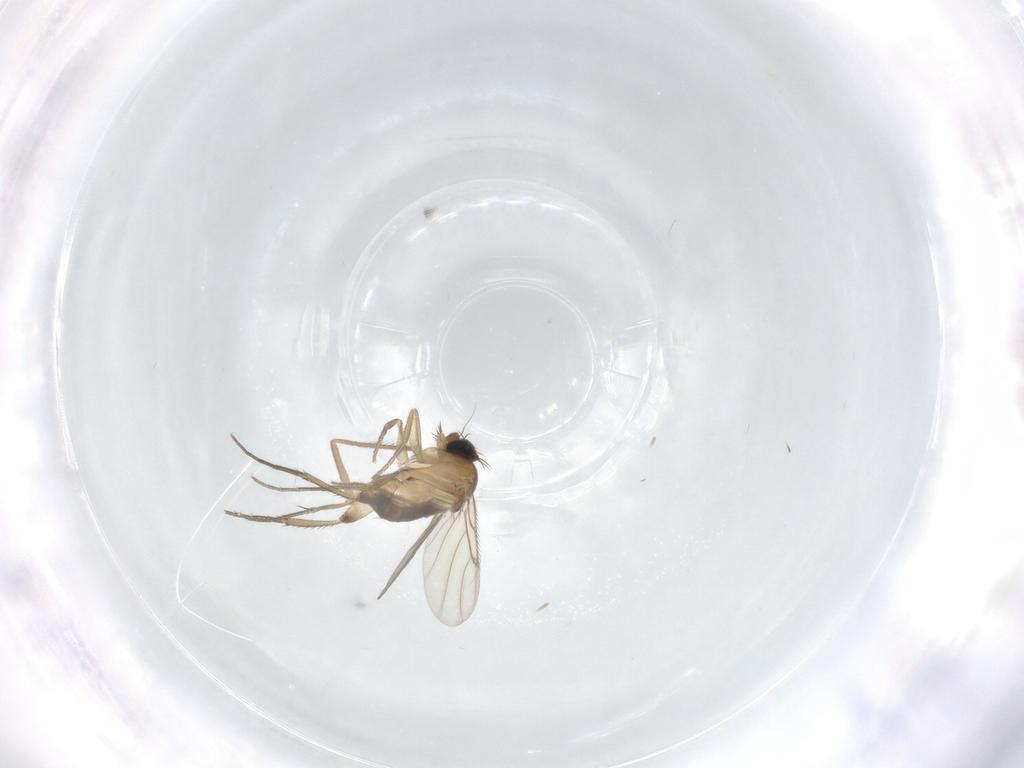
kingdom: Animalia
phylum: Arthropoda
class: Insecta
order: Diptera
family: Phoridae
